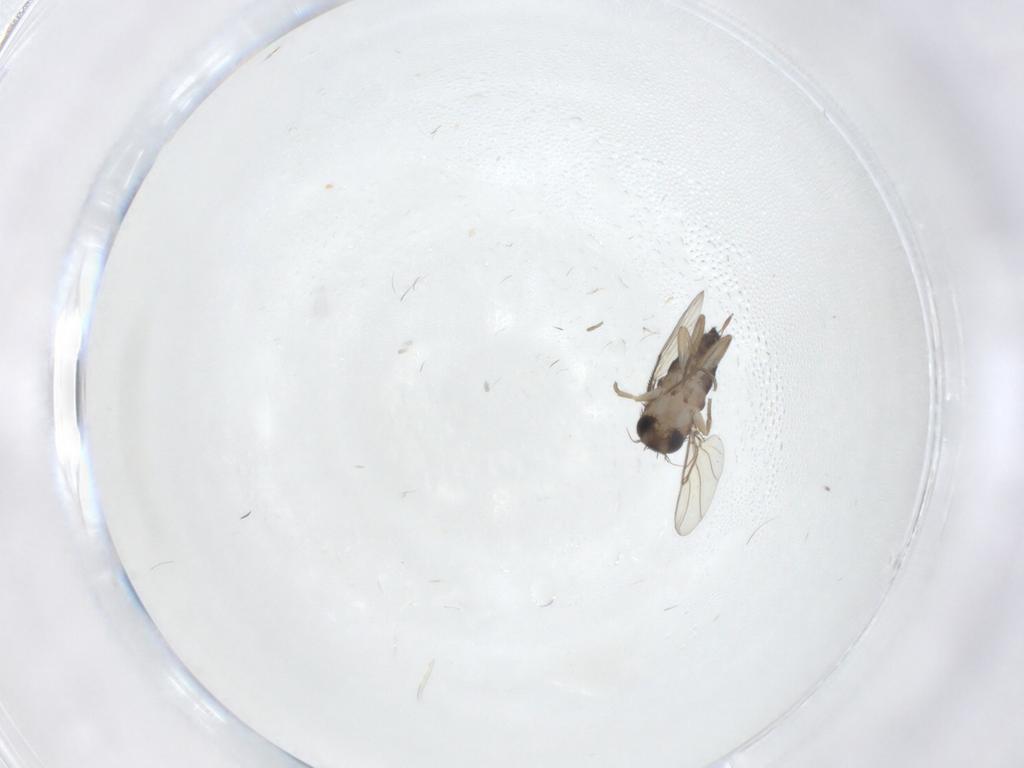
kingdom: Animalia
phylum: Arthropoda
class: Insecta
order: Diptera
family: Phoridae
